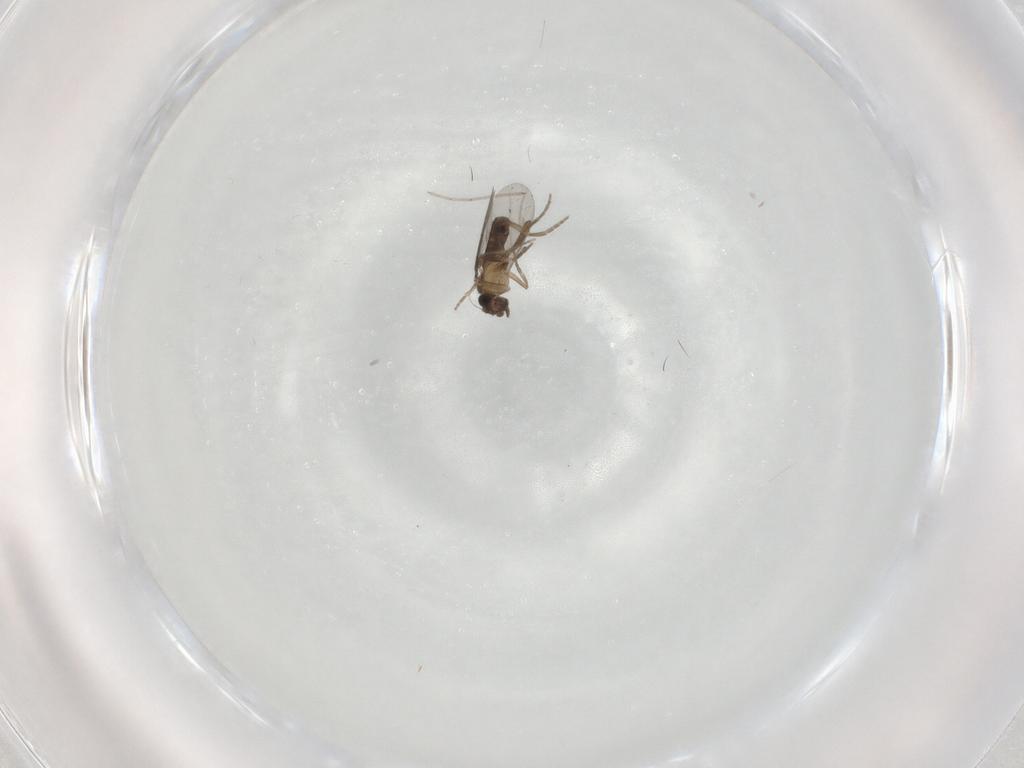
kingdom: Animalia
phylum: Arthropoda
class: Insecta
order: Diptera
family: Cecidomyiidae
